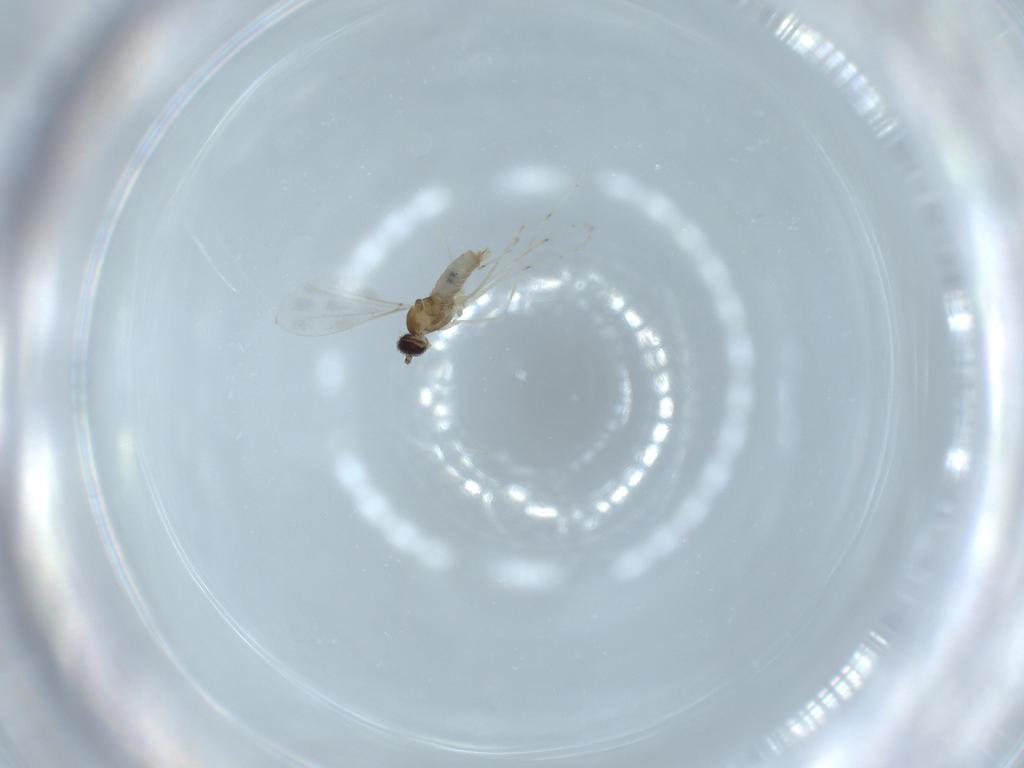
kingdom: Animalia
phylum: Arthropoda
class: Insecta
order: Diptera
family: Cecidomyiidae
